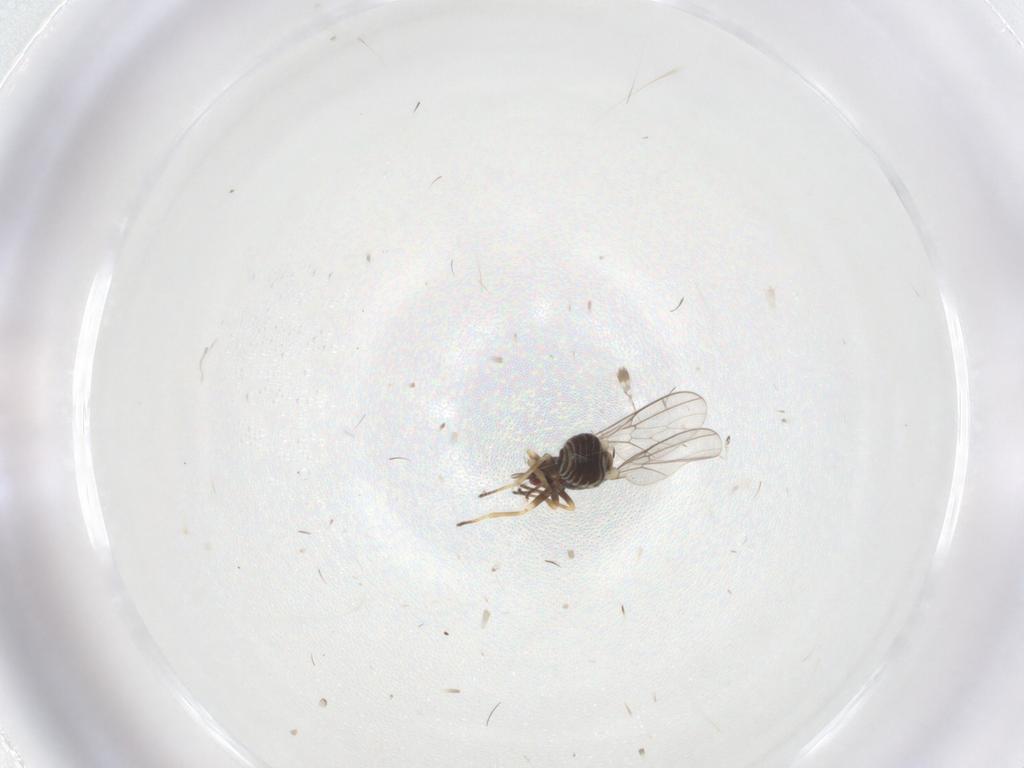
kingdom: Animalia
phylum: Arthropoda
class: Insecta
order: Diptera
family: Bombyliidae
